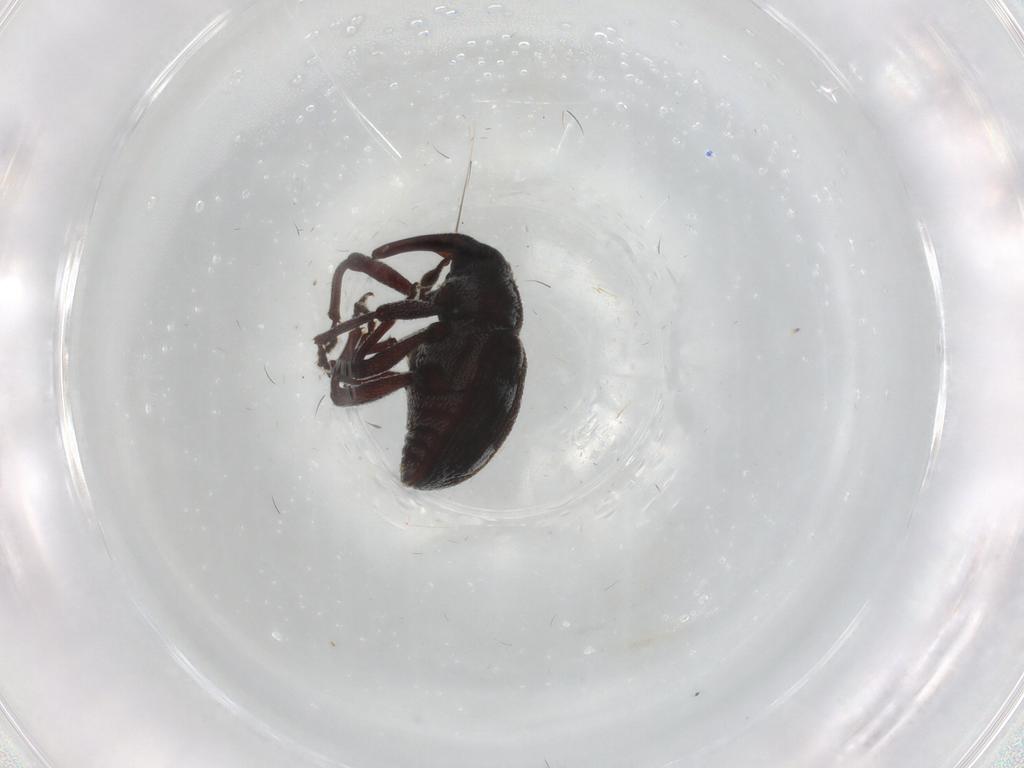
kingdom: Animalia
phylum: Arthropoda
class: Insecta
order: Coleoptera
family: Curculionidae
